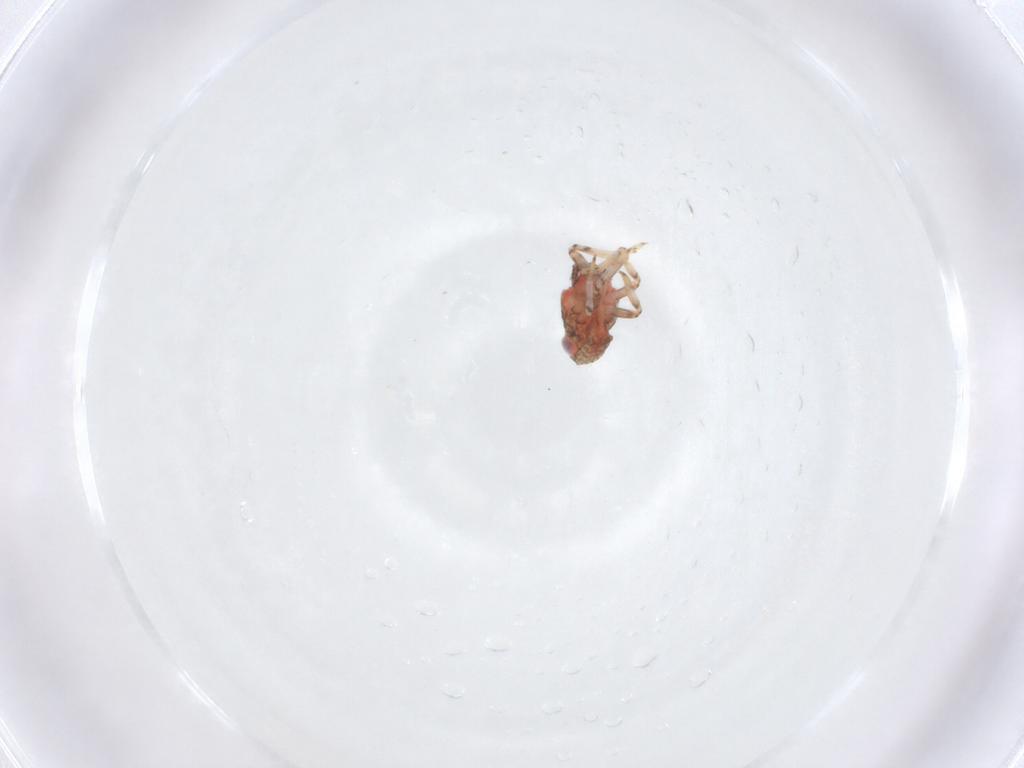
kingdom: Animalia
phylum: Arthropoda
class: Insecta
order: Hemiptera
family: Issidae
